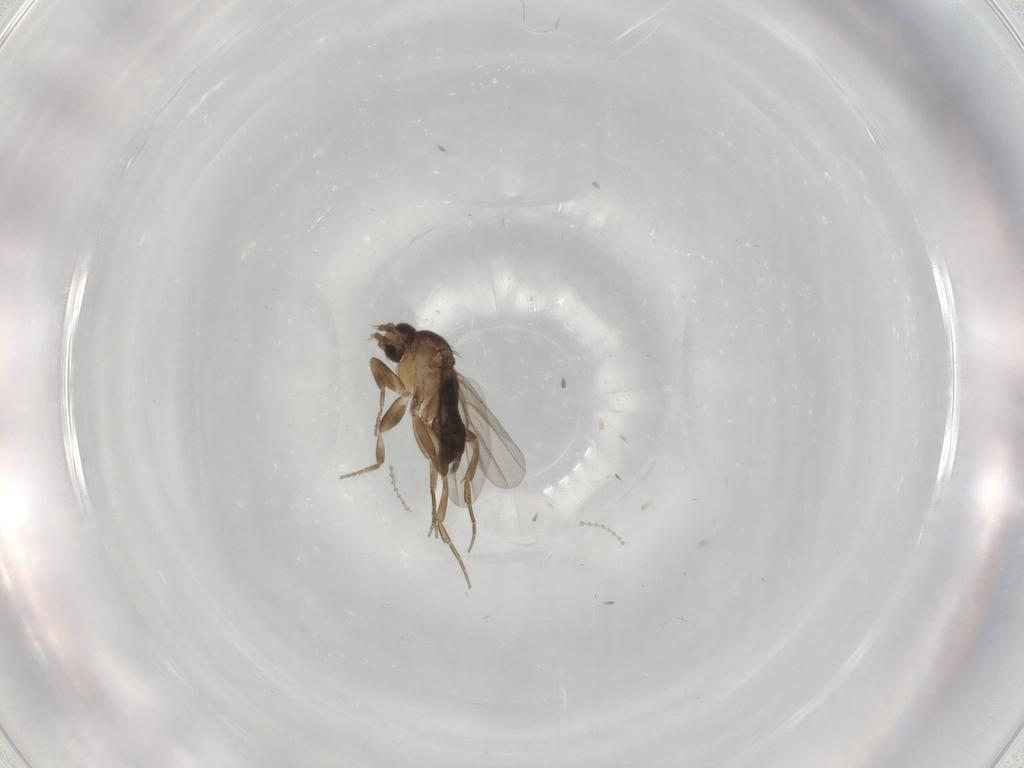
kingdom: Animalia
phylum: Arthropoda
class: Insecta
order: Diptera
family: Cecidomyiidae
